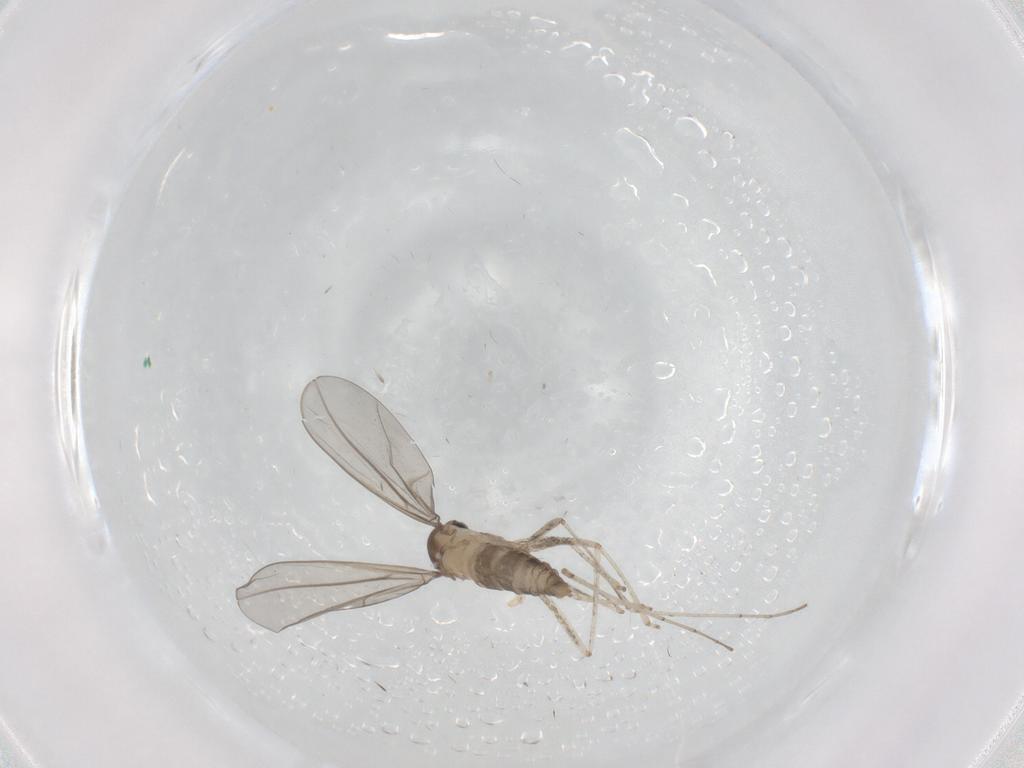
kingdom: Animalia
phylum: Arthropoda
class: Insecta
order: Diptera
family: Cecidomyiidae
